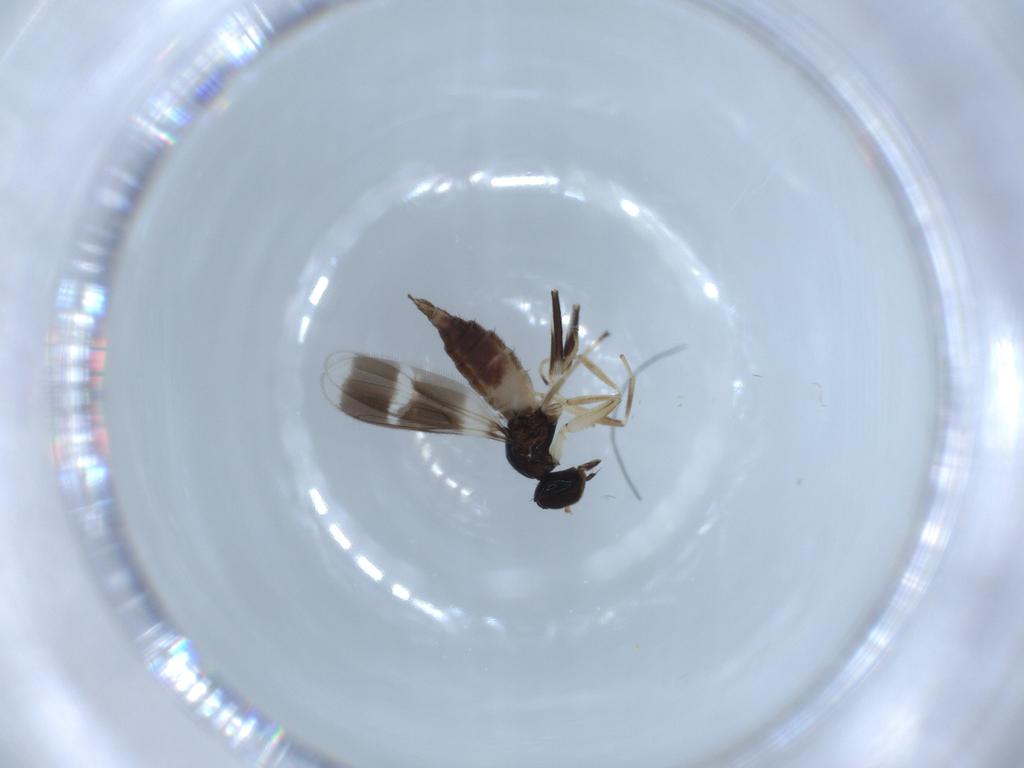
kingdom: Animalia
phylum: Arthropoda
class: Insecta
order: Diptera
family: Hybotidae
